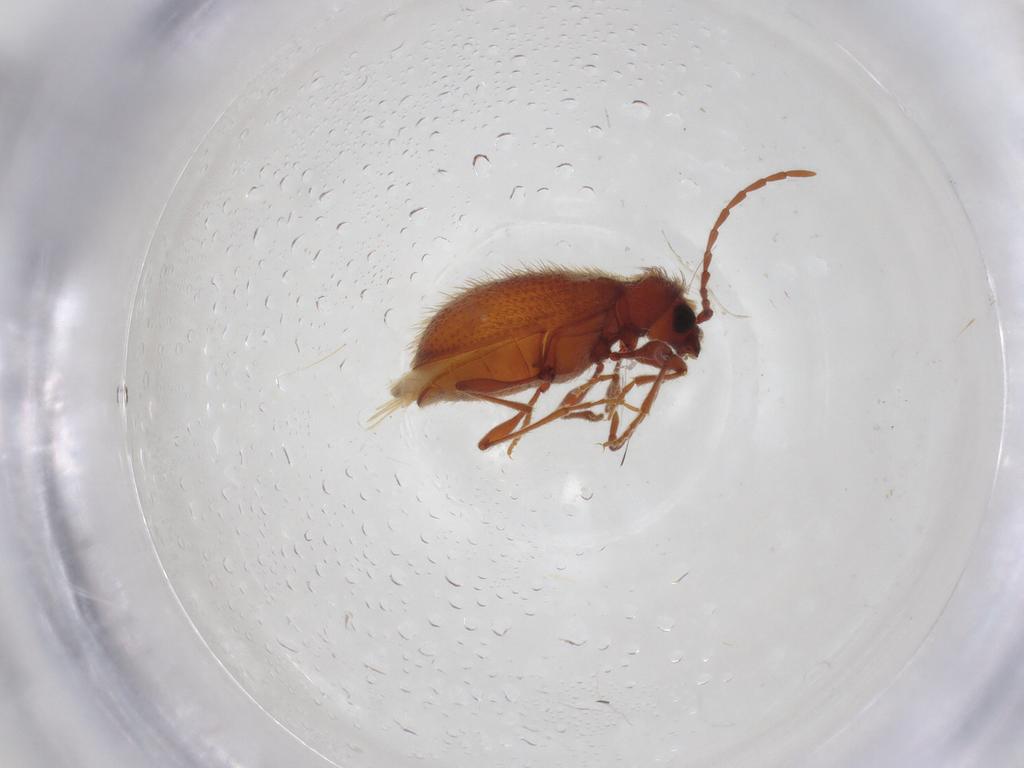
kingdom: Animalia
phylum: Arthropoda
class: Insecta
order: Coleoptera
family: Ptinidae
